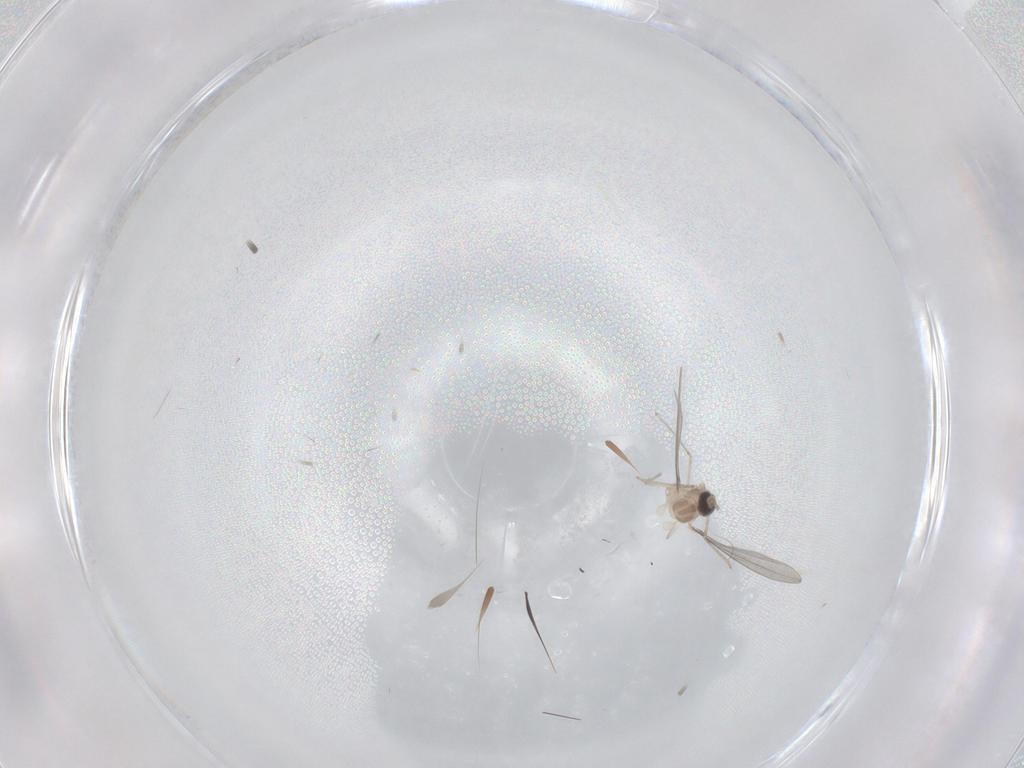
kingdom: Animalia
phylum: Arthropoda
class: Insecta
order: Diptera
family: Cecidomyiidae
